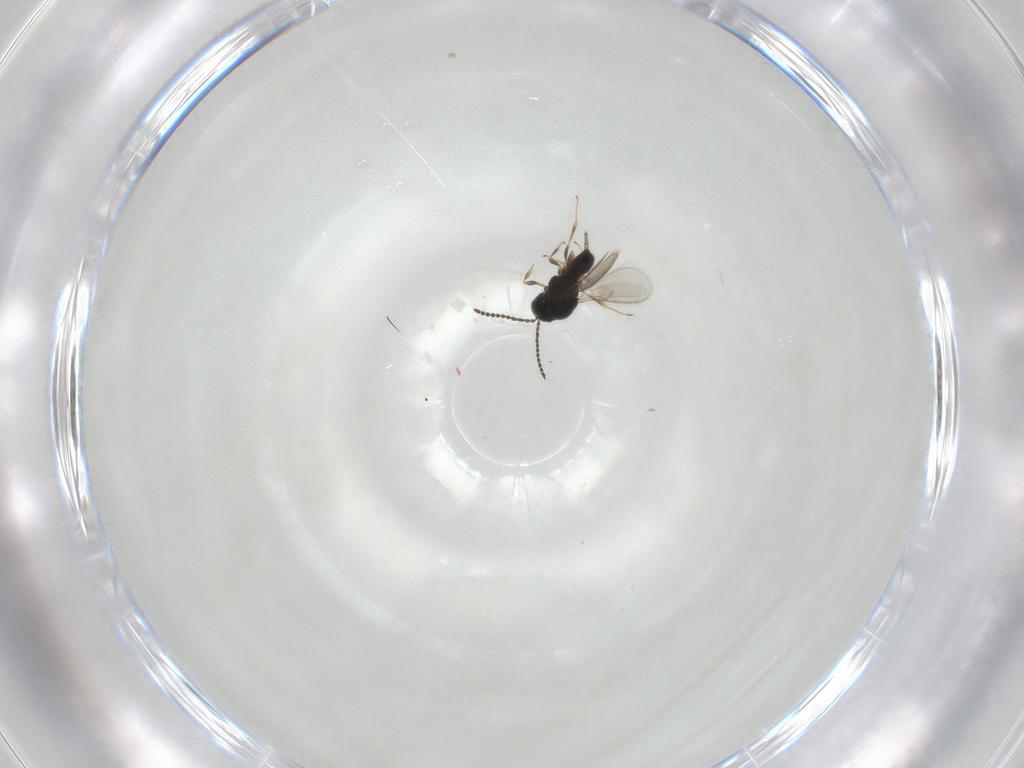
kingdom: Animalia
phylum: Arthropoda
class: Insecta
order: Hymenoptera
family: Scelionidae
